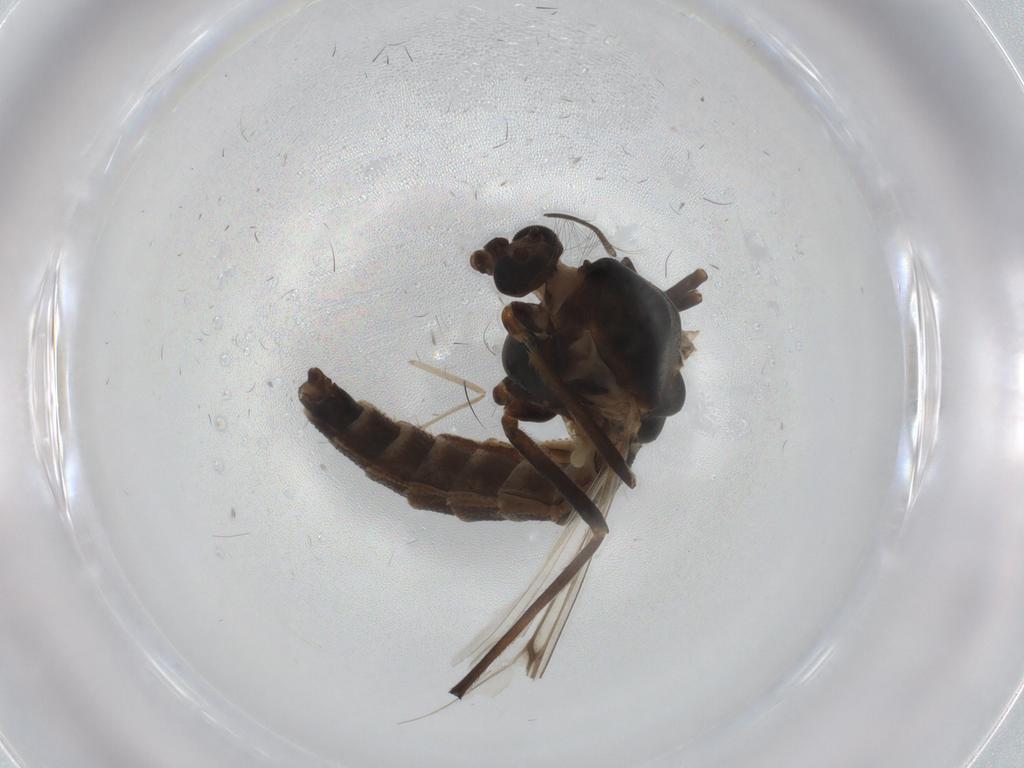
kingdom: Animalia
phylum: Arthropoda
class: Insecta
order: Diptera
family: Chironomidae
